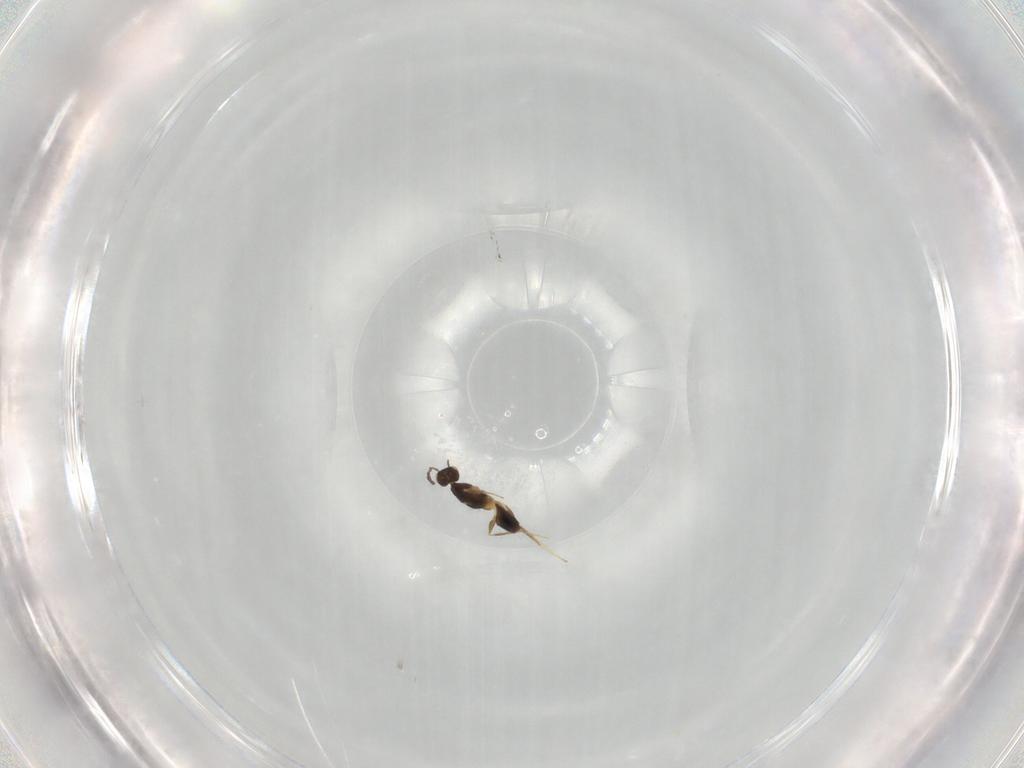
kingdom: Animalia
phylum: Arthropoda
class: Insecta
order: Hymenoptera
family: Mymaridae
